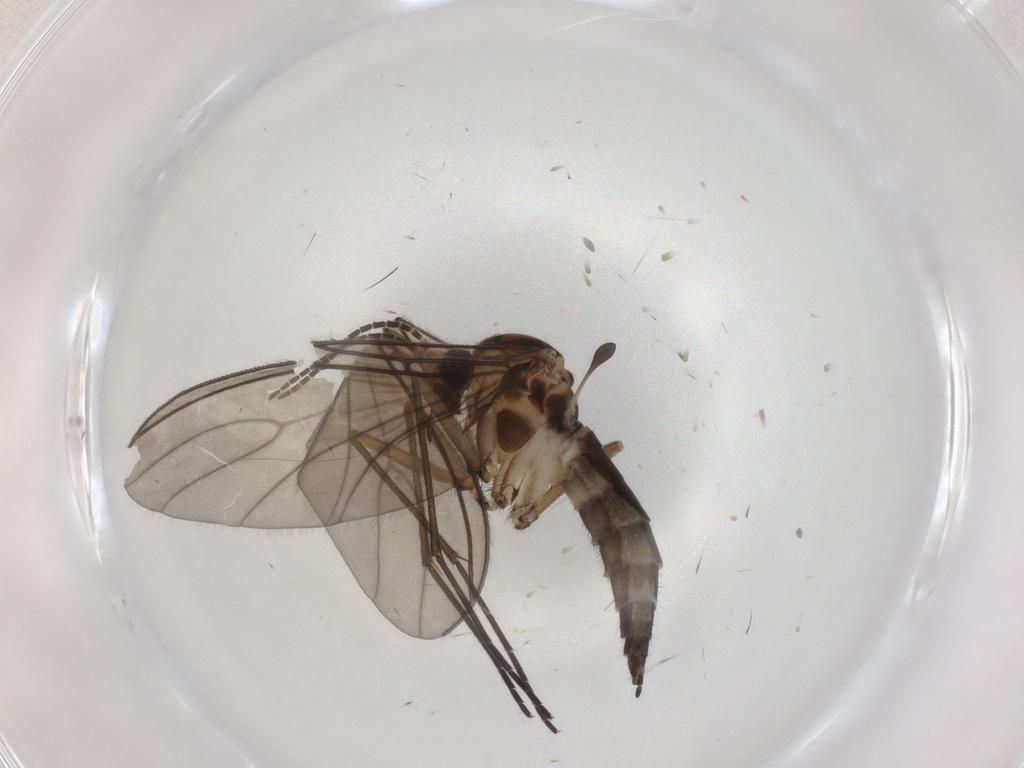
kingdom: Animalia
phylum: Arthropoda
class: Insecta
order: Diptera
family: Sciaridae
